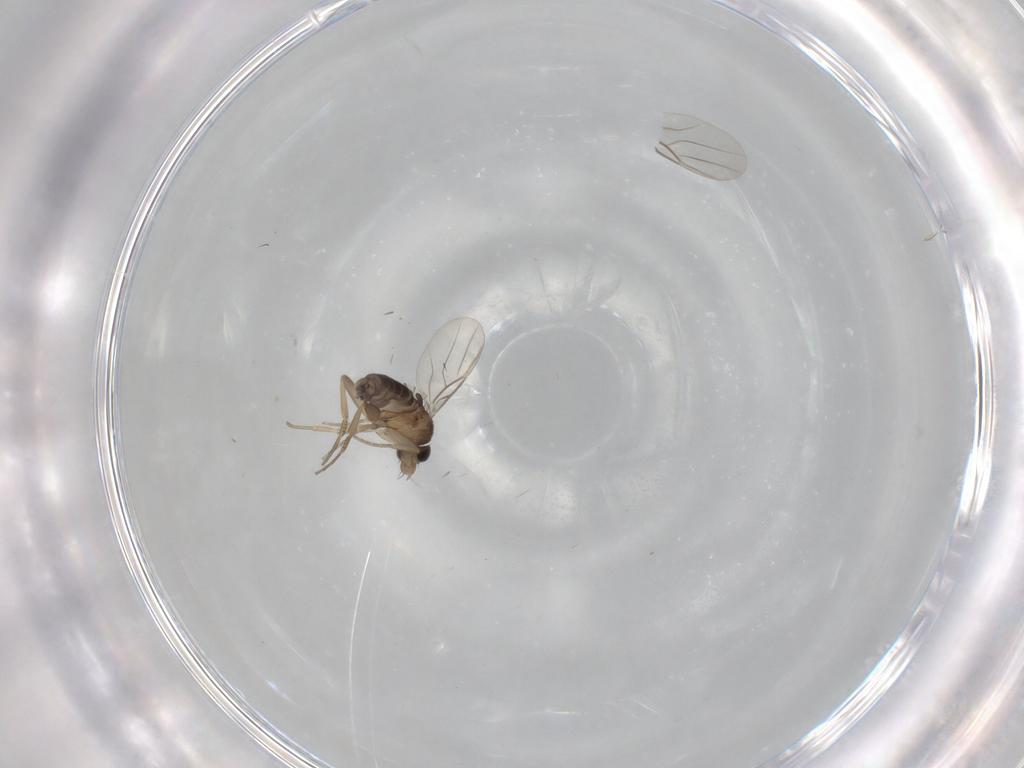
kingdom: Animalia
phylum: Arthropoda
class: Insecta
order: Diptera
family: Phoridae
